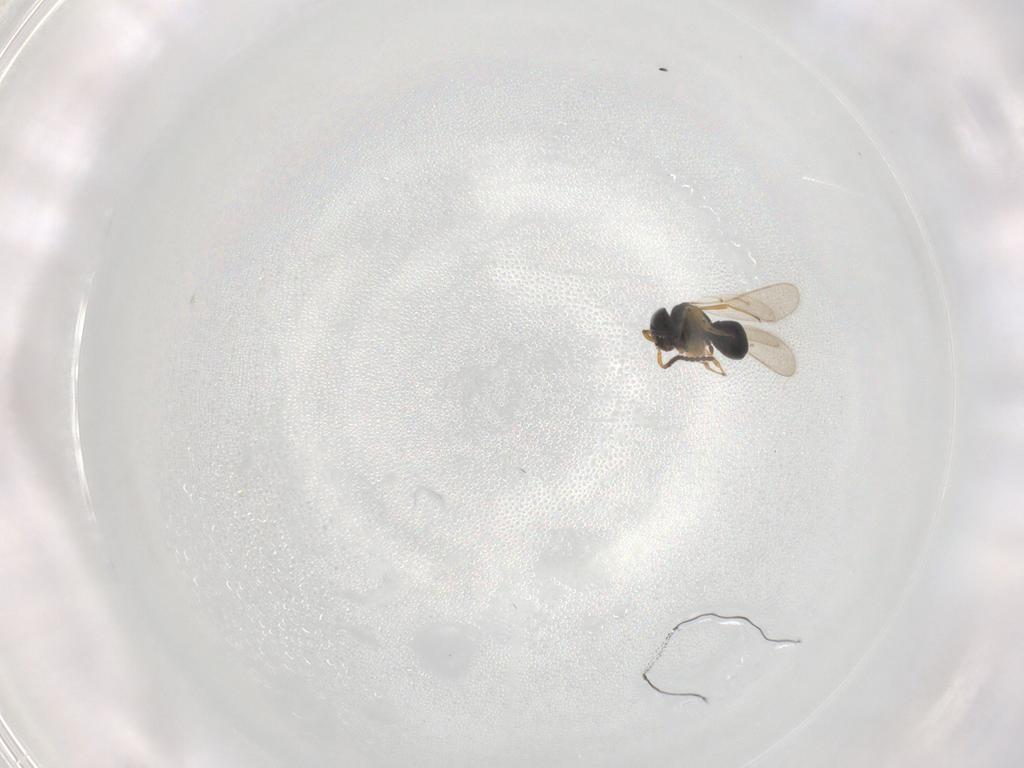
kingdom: Animalia
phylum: Arthropoda
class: Insecta
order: Hymenoptera
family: Scelionidae
